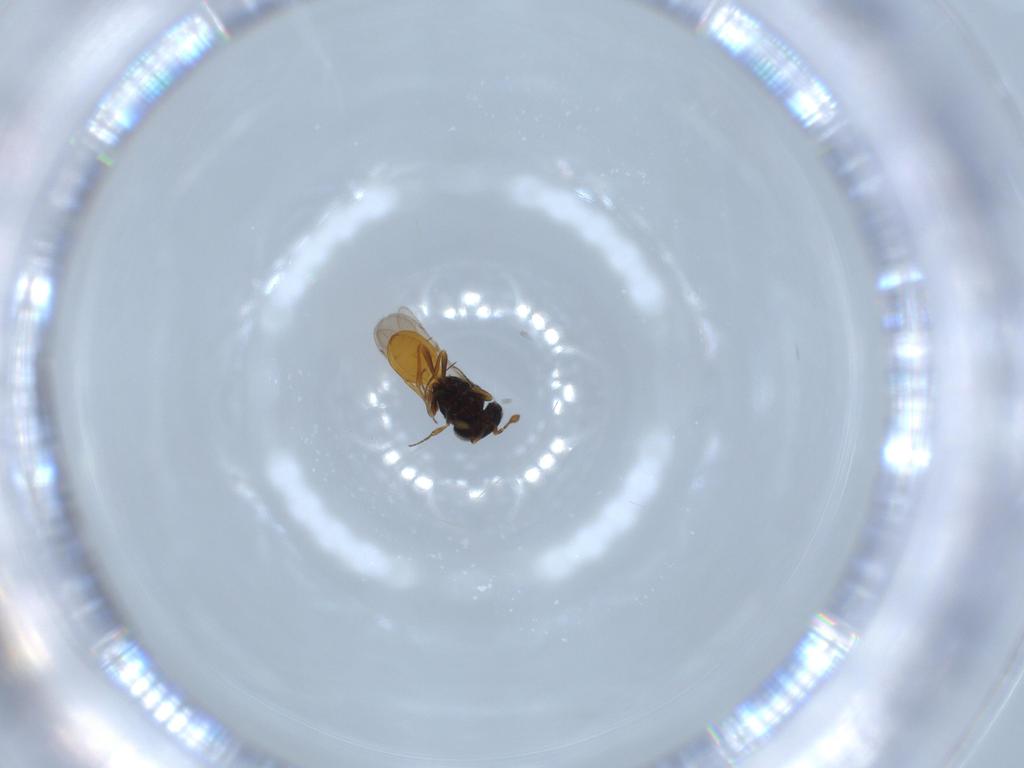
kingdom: Animalia
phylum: Arthropoda
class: Insecta
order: Hymenoptera
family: Scelionidae
